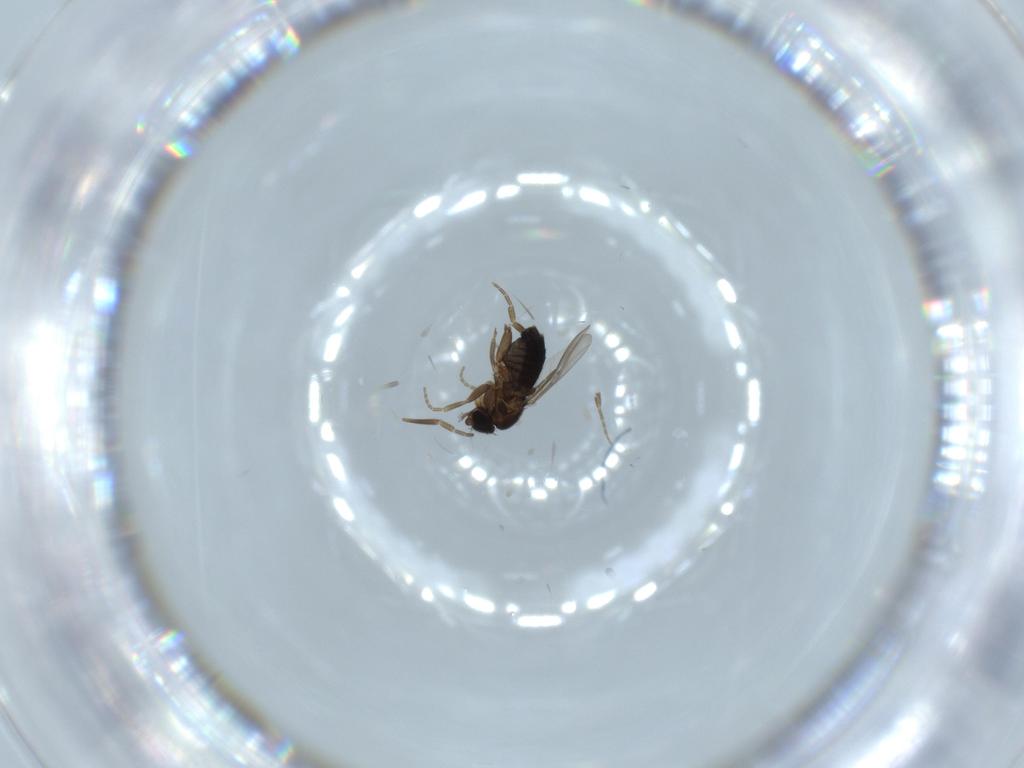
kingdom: Animalia
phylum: Arthropoda
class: Insecta
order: Diptera
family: Phoridae
